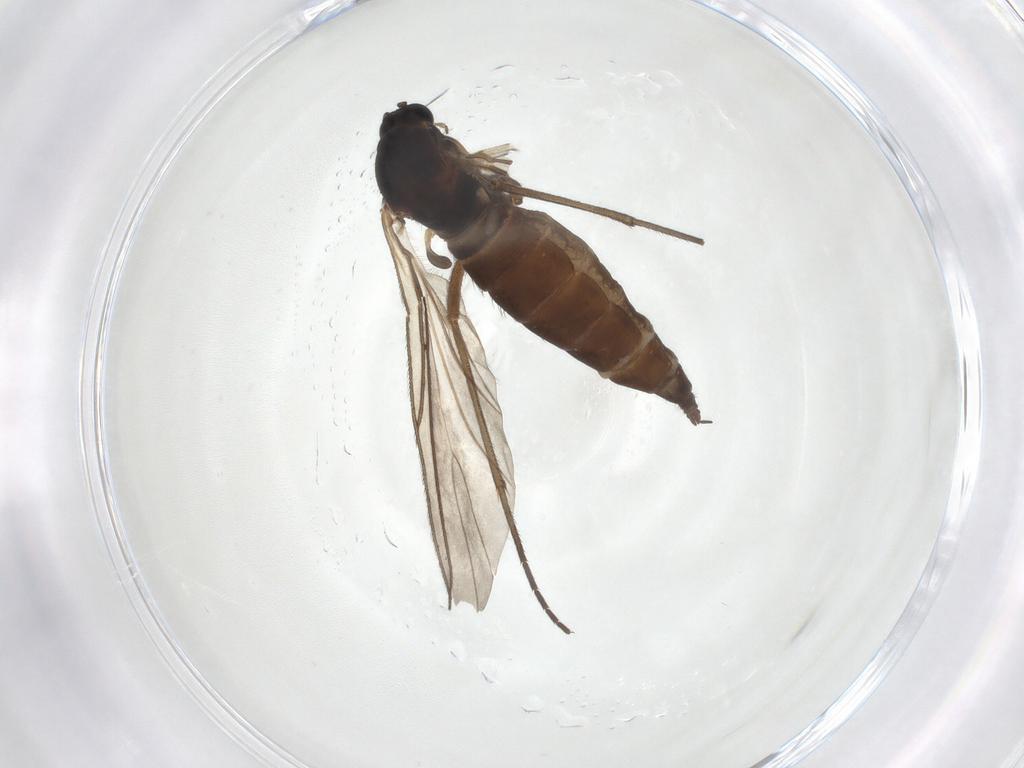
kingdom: Animalia
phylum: Arthropoda
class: Insecta
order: Diptera
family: Sciaridae
